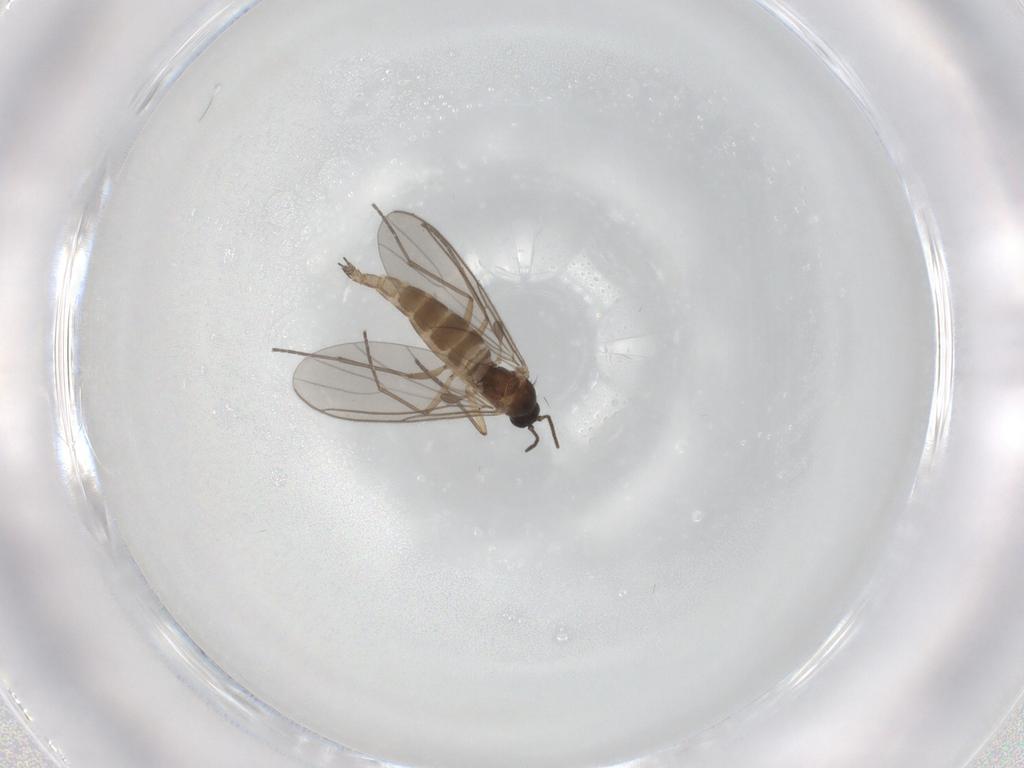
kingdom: Animalia
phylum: Arthropoda
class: Insecta
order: Diptera
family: Sciaridae
